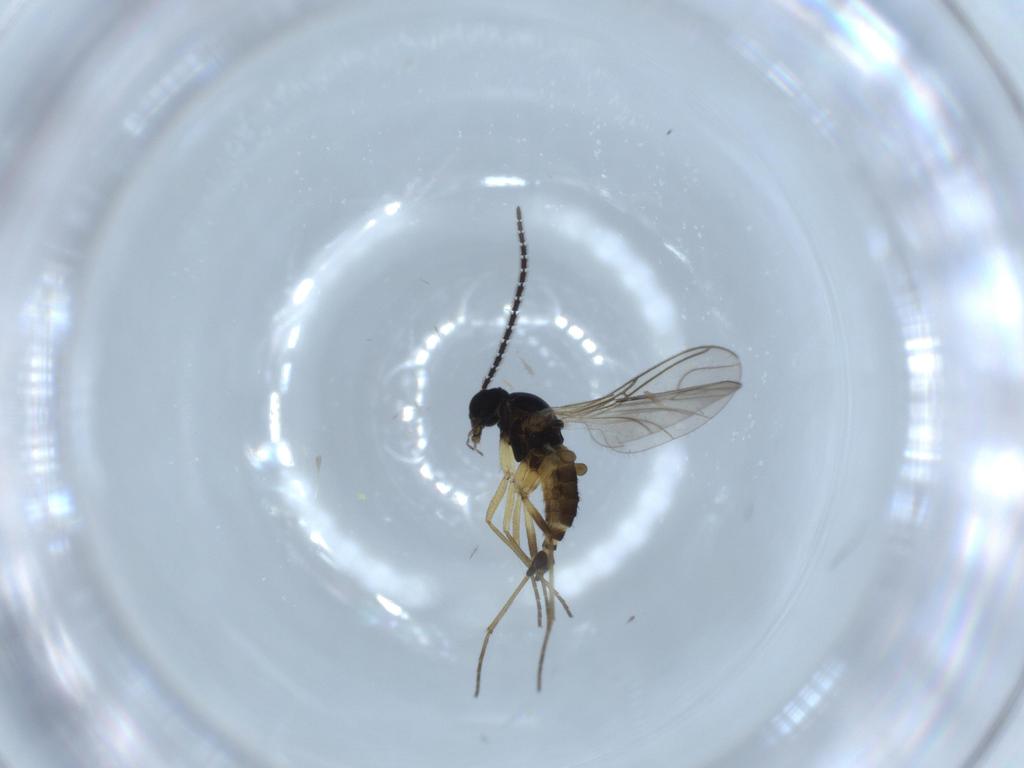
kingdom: Animalia
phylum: Arthropoda
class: Insecta
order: Diptera
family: Sciaridae
